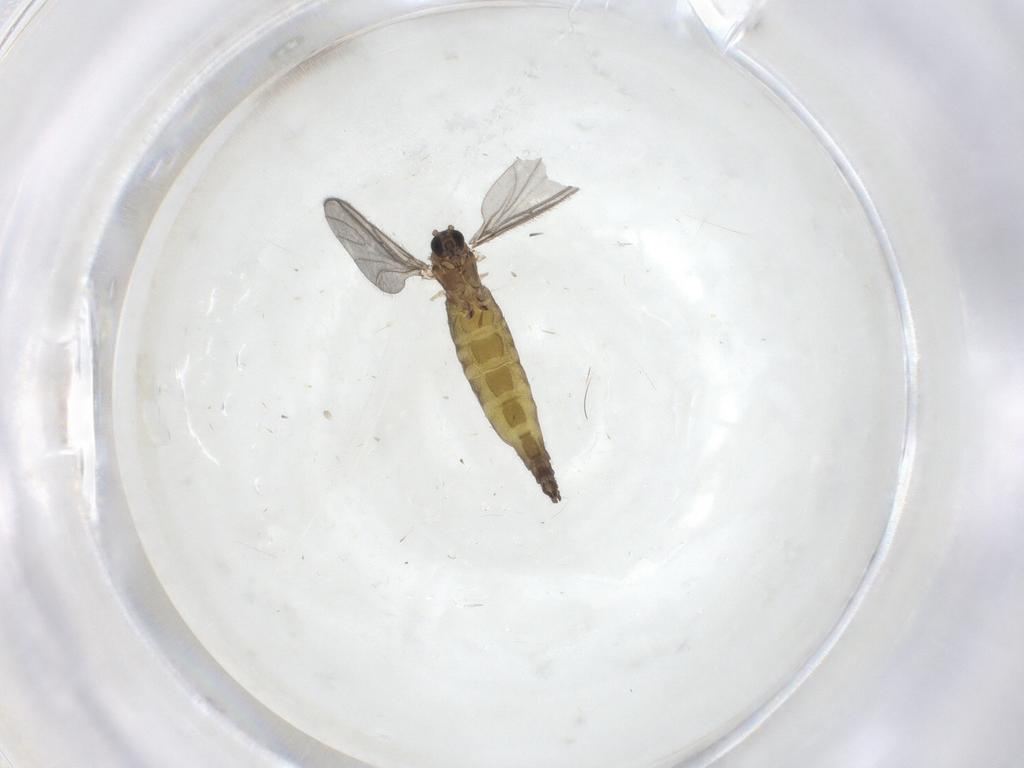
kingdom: Animalia
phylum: Arthropoda
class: Insecta
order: Diptera
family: Sciaridae
